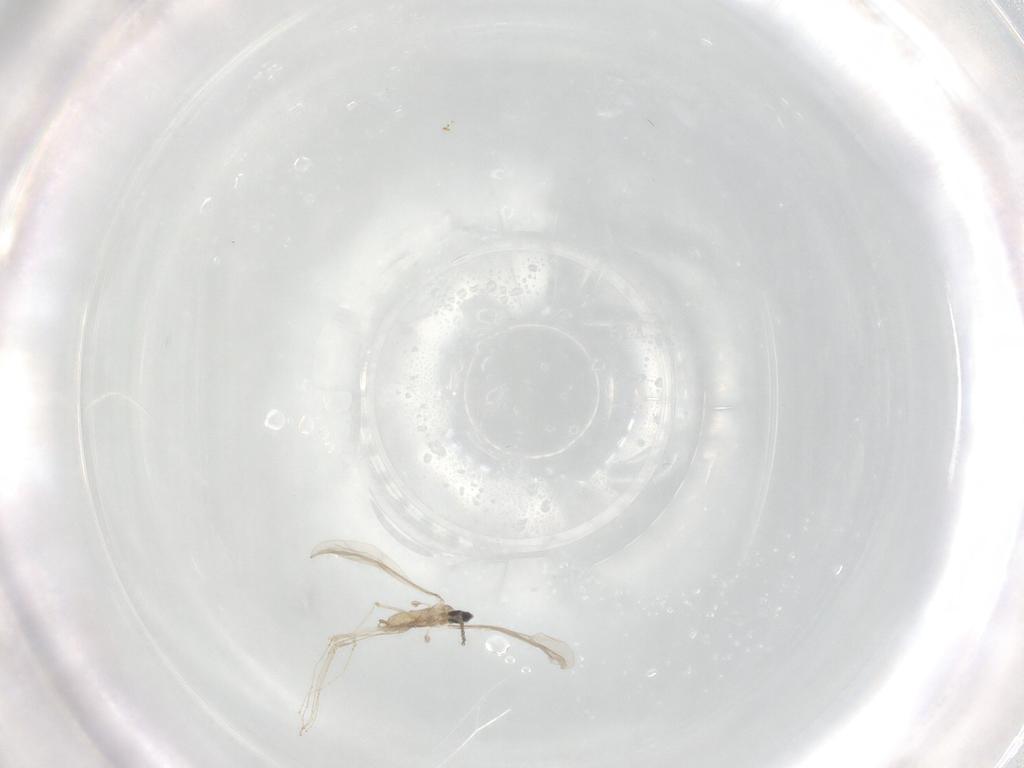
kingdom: Animalia
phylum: Arthropoda
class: Insecta
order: Diptera
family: Cecidomyiidae
